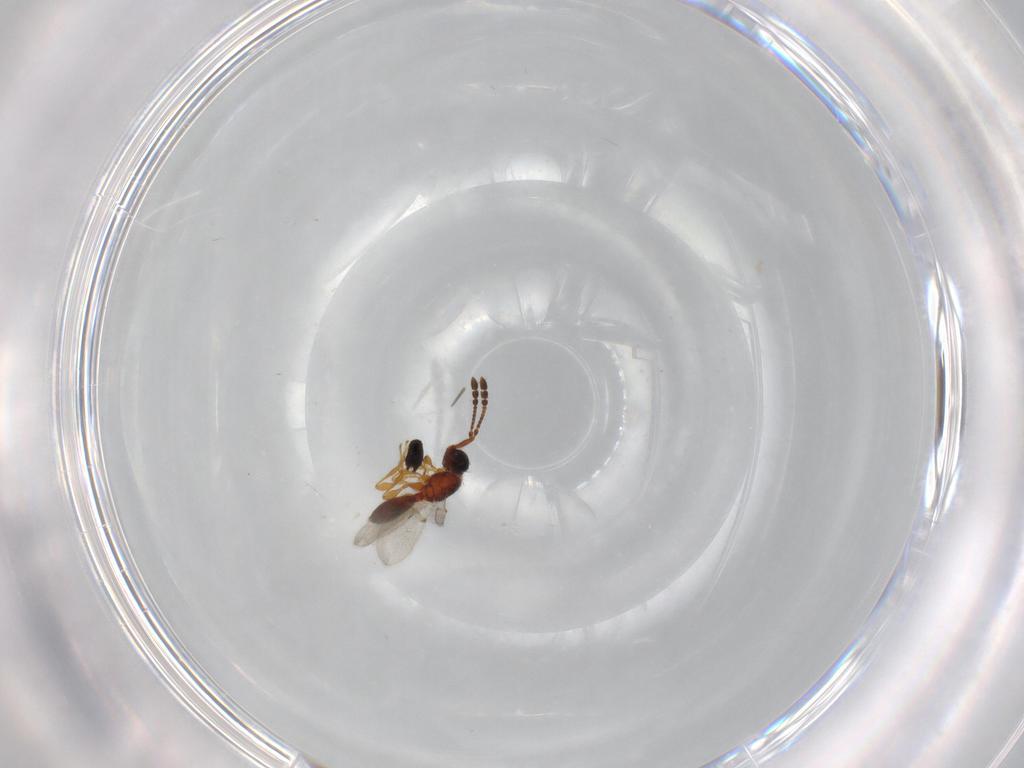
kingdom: Animalia
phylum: Arthropoda
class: Insecta
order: Hymenoptera
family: Diapriidae
